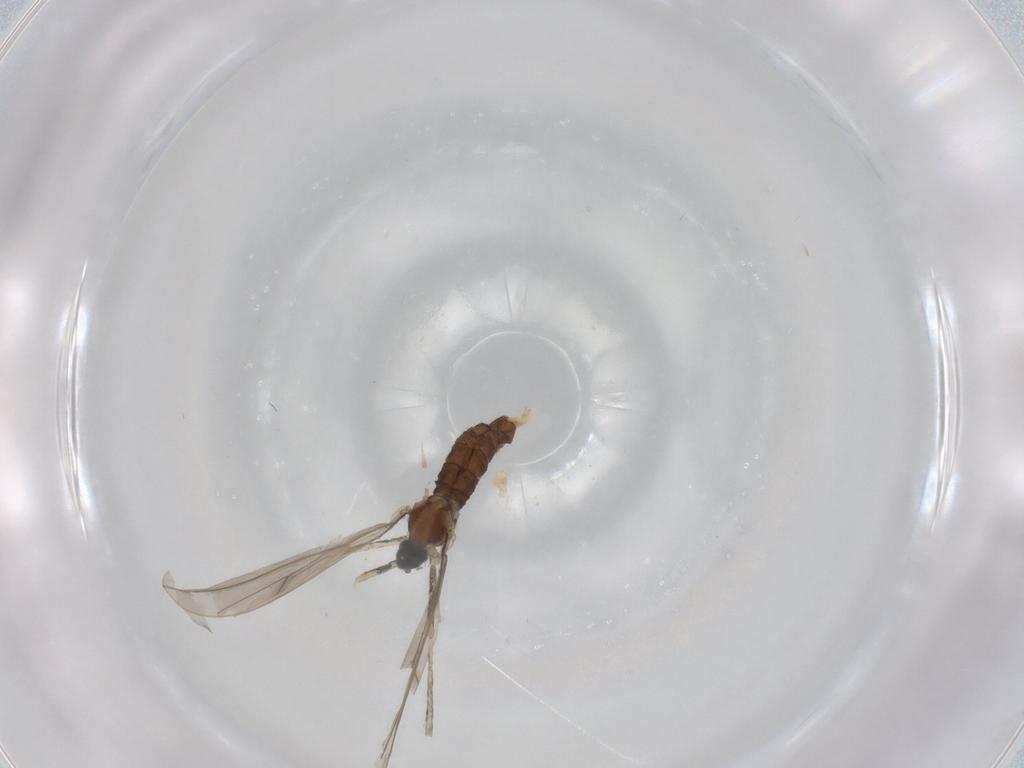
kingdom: Animalia
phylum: Arthropoda
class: Insecta
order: Diptera
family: Cecidomyiidae
